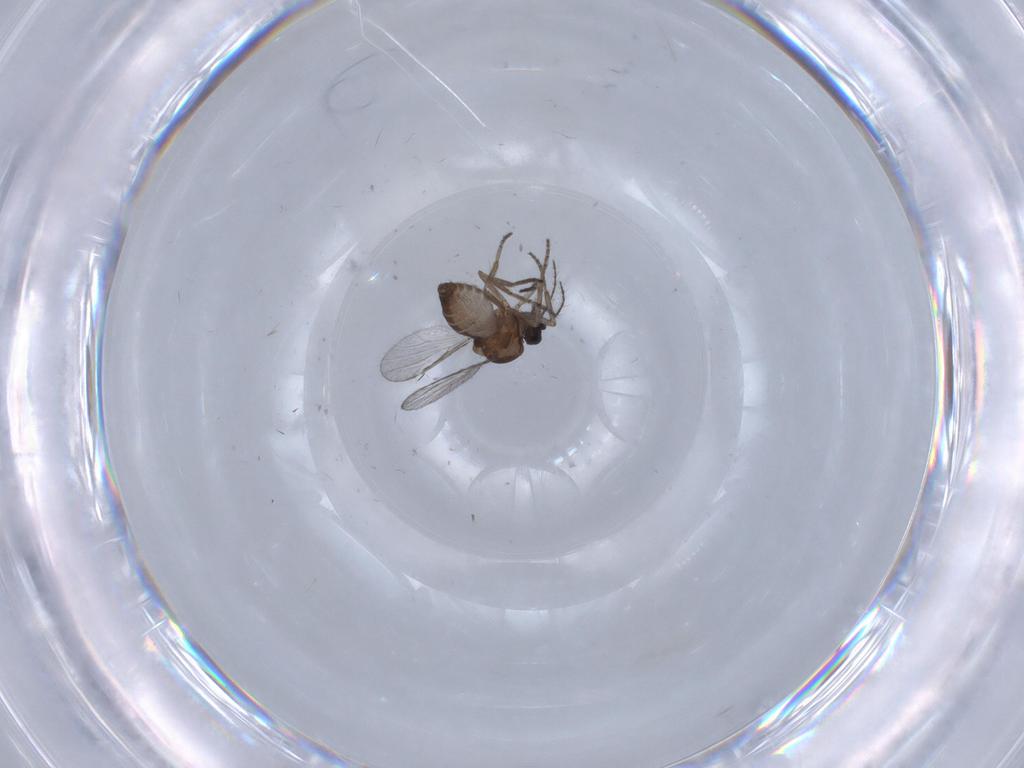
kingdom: Animalia
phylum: Arthropoda
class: Insecta
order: Diptera
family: Ceratopogonidae
